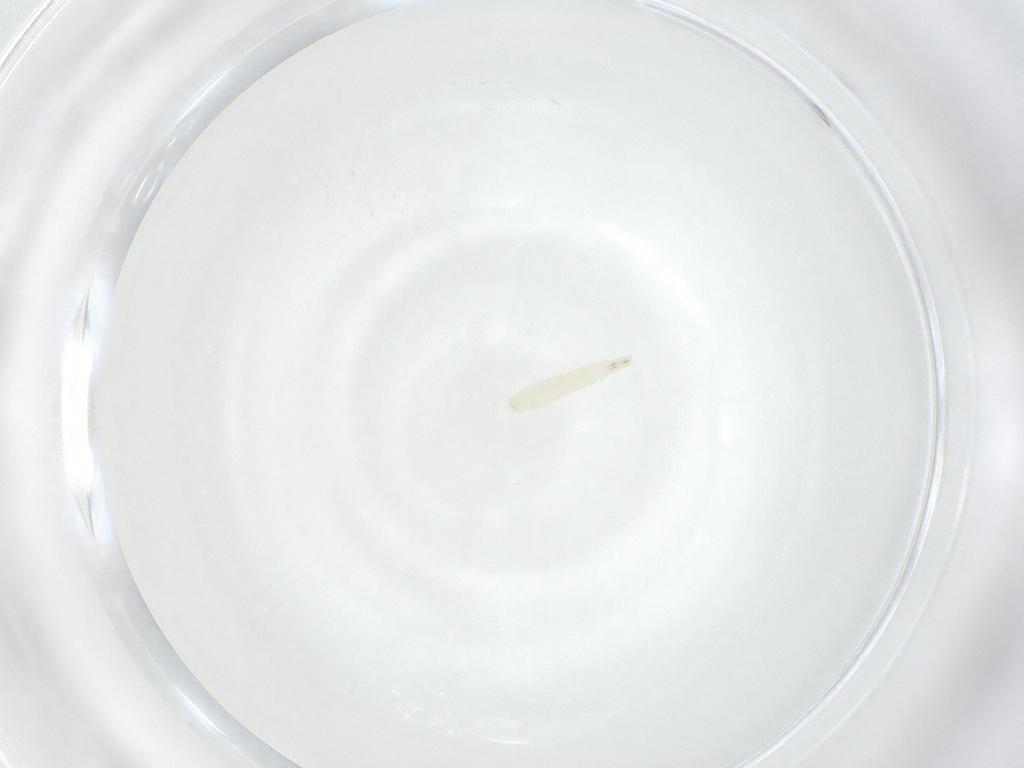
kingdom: Animalia
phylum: Arthropoda
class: Insecta
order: Diptera
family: Sarcophagidae
